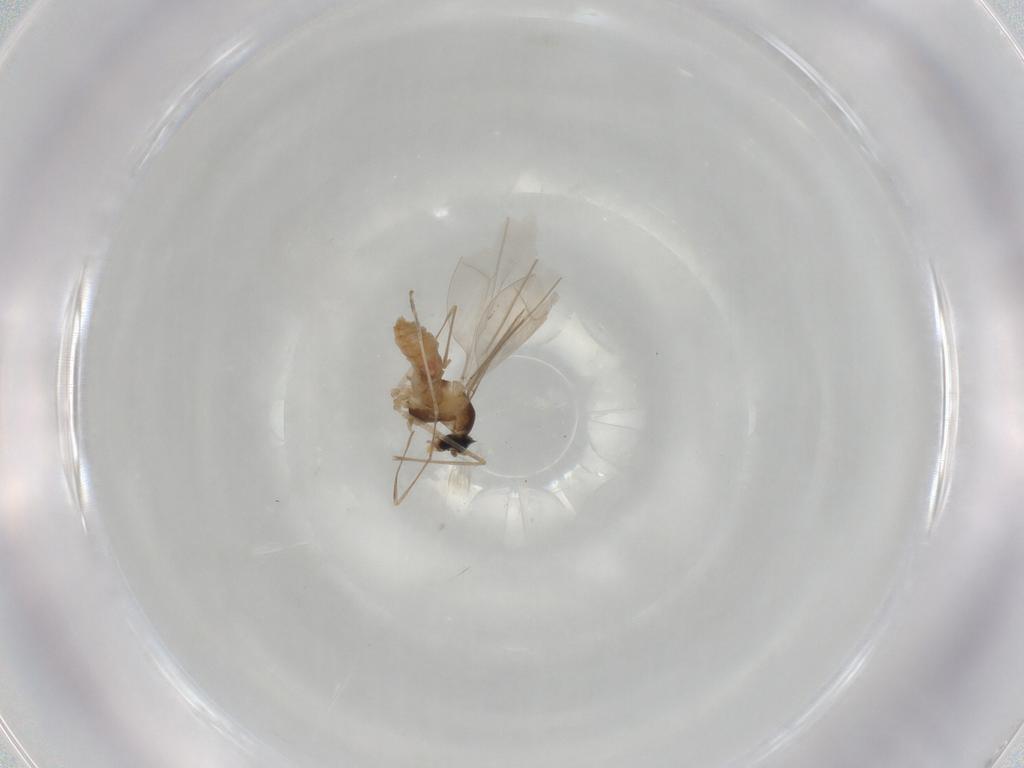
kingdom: Animalia
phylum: Arthropoda
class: Insecta
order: Diptera
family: Cecidomyiidae
